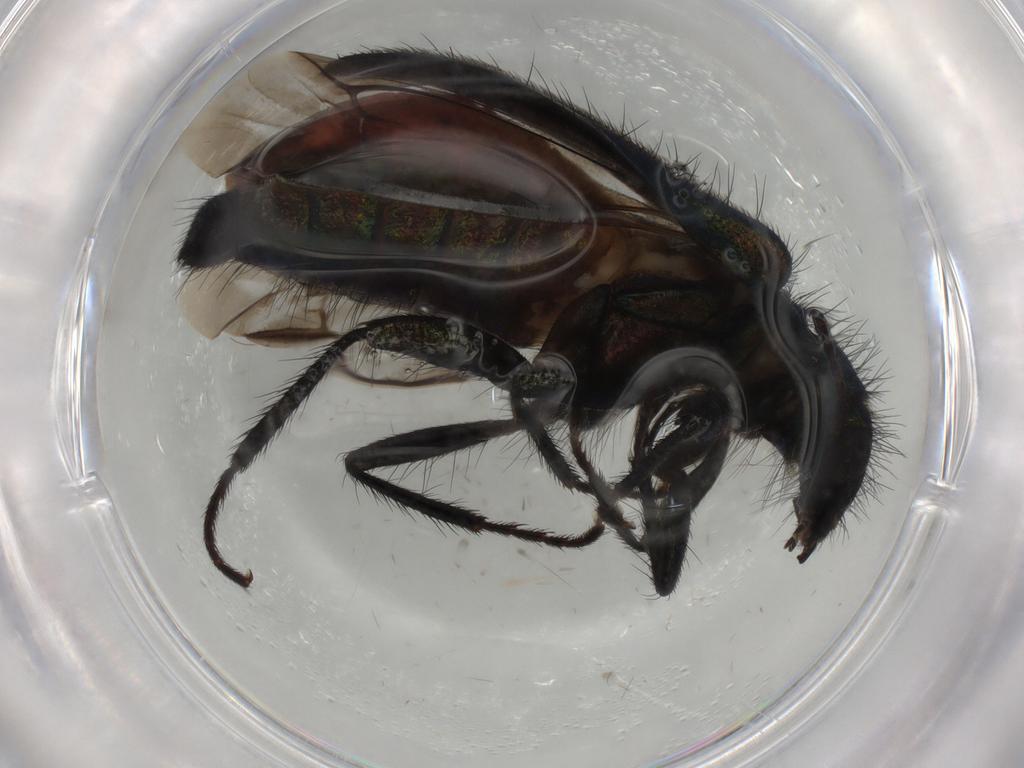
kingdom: Animalia
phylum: Arthropoda
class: Insecta
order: Coleoptera
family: Melyridae
